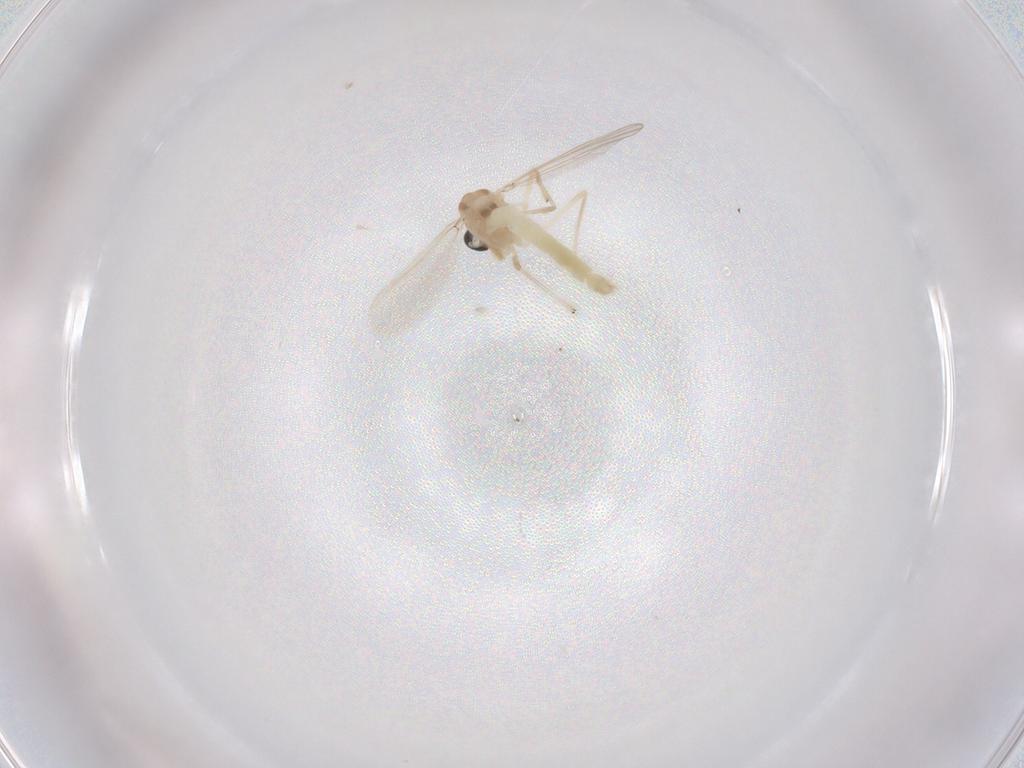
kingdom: Animalia
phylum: Arthropoda
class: Insecta
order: Diptera
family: Chironomidae
